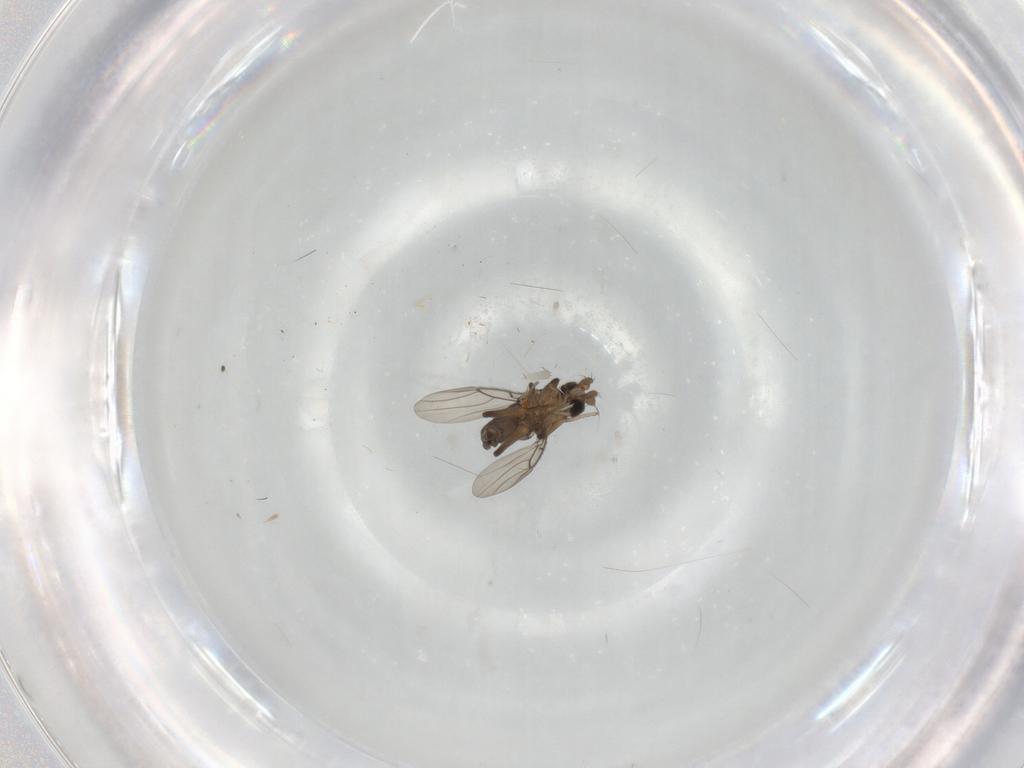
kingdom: Animalia
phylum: Arthropoda
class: Insecta
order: Diptera
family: Phoridae
